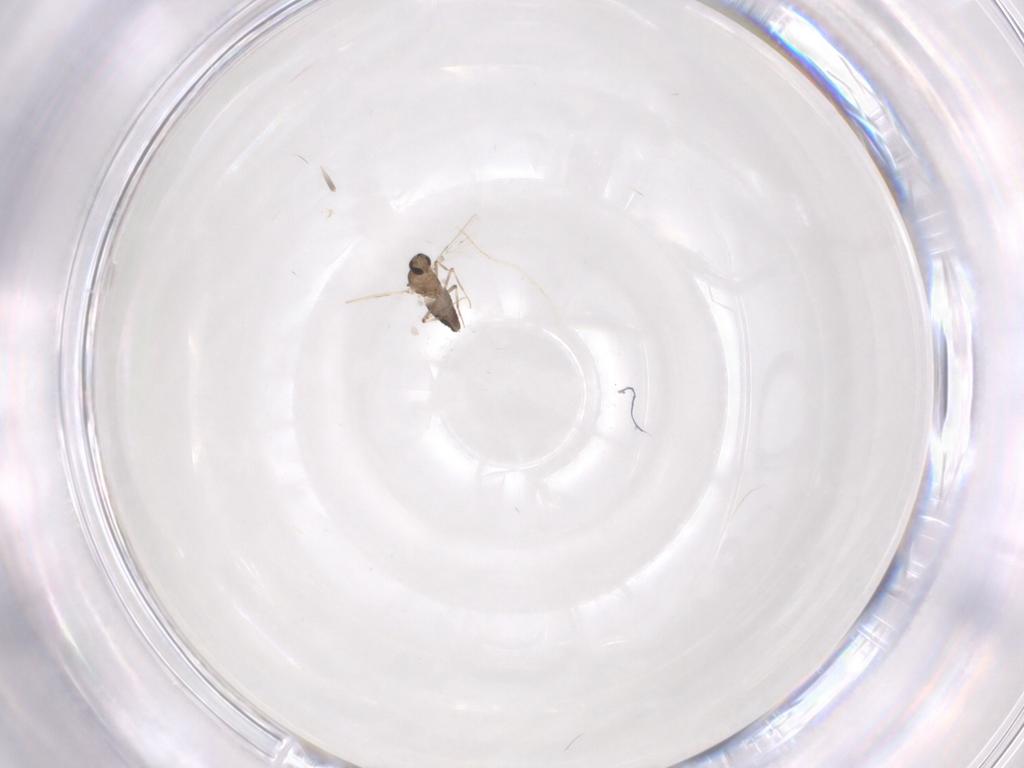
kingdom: Animalia
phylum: Arthropoda
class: Insecta
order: Diptera
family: Ceratopogonidae
